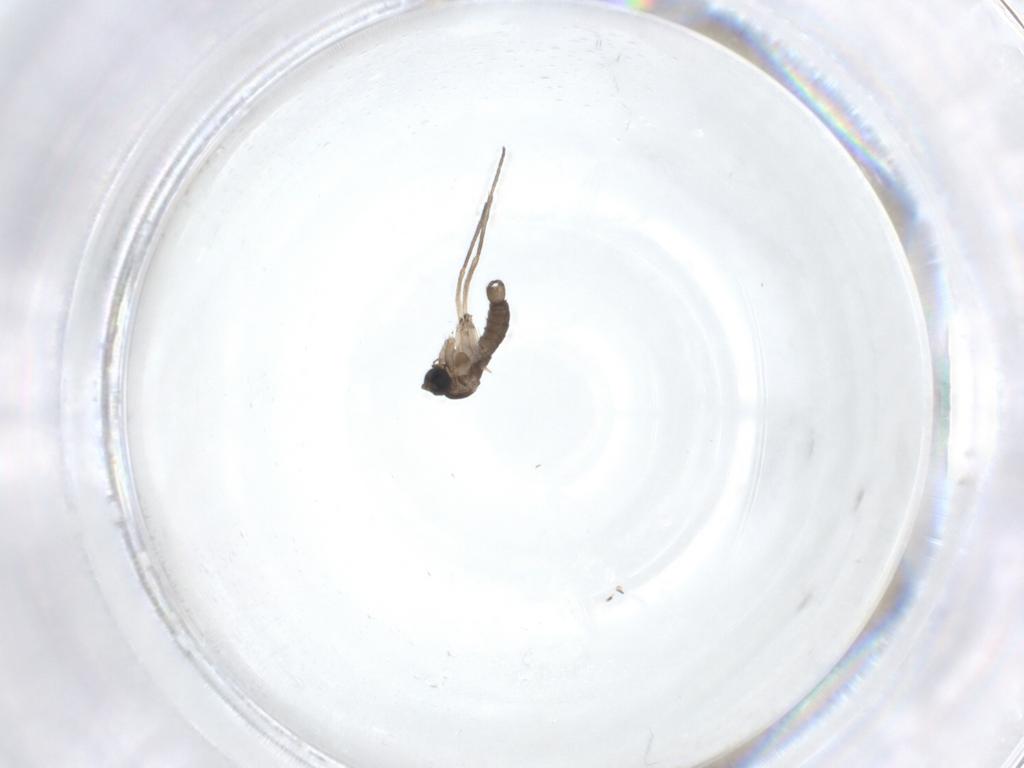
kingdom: Animalia
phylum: Arthropoda
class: Insecta
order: Diptera
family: Sciaridae
